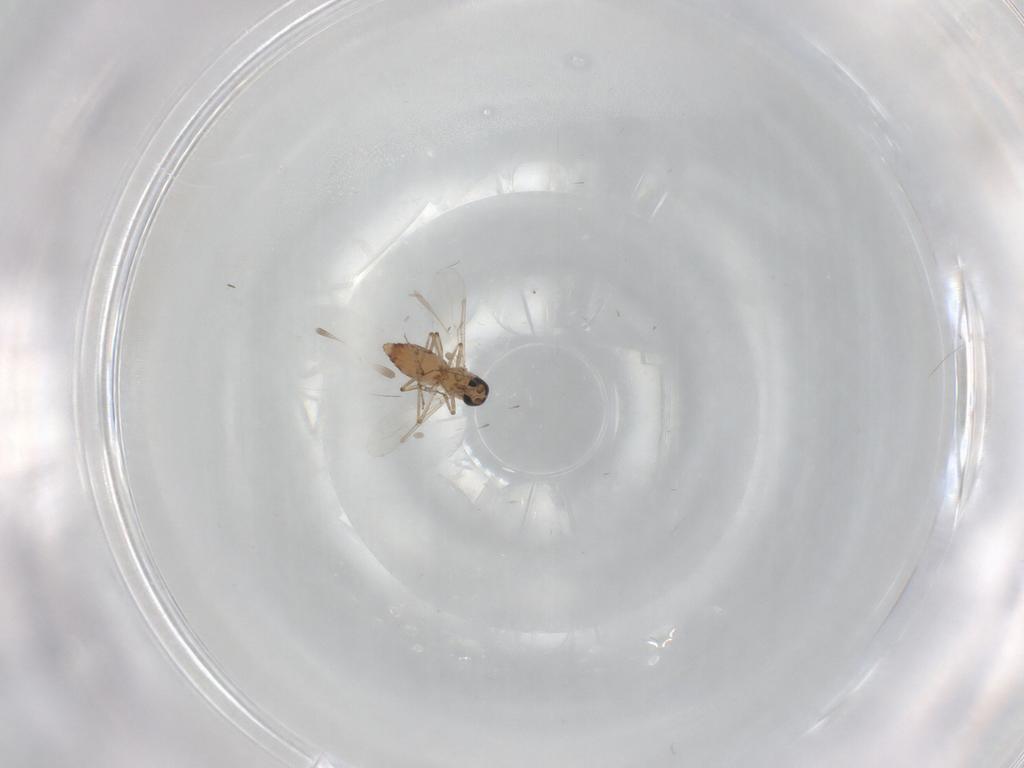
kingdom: Animalia
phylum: Arthropoda
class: Insecta
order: Diptera
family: Ceratopogonidae
